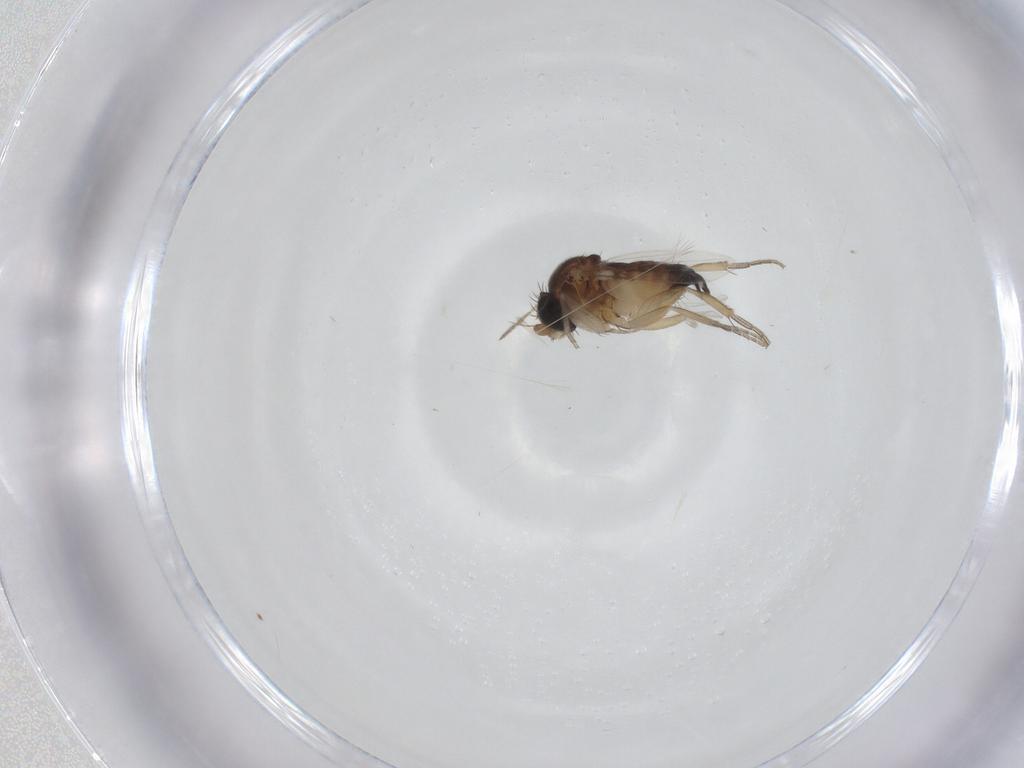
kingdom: Animalia
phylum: Arthropoda
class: Insecta
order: Diptera
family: Phoridae
